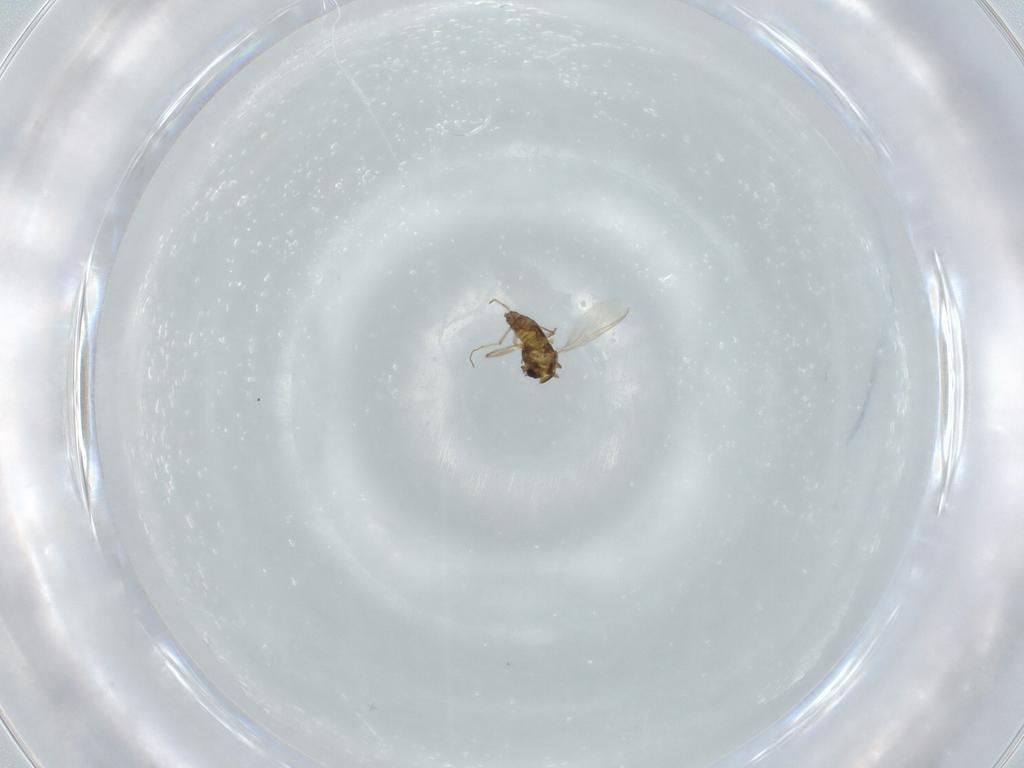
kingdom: Animalia
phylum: Arthropoda
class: Insecta
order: Diptera
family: Chironomidae
